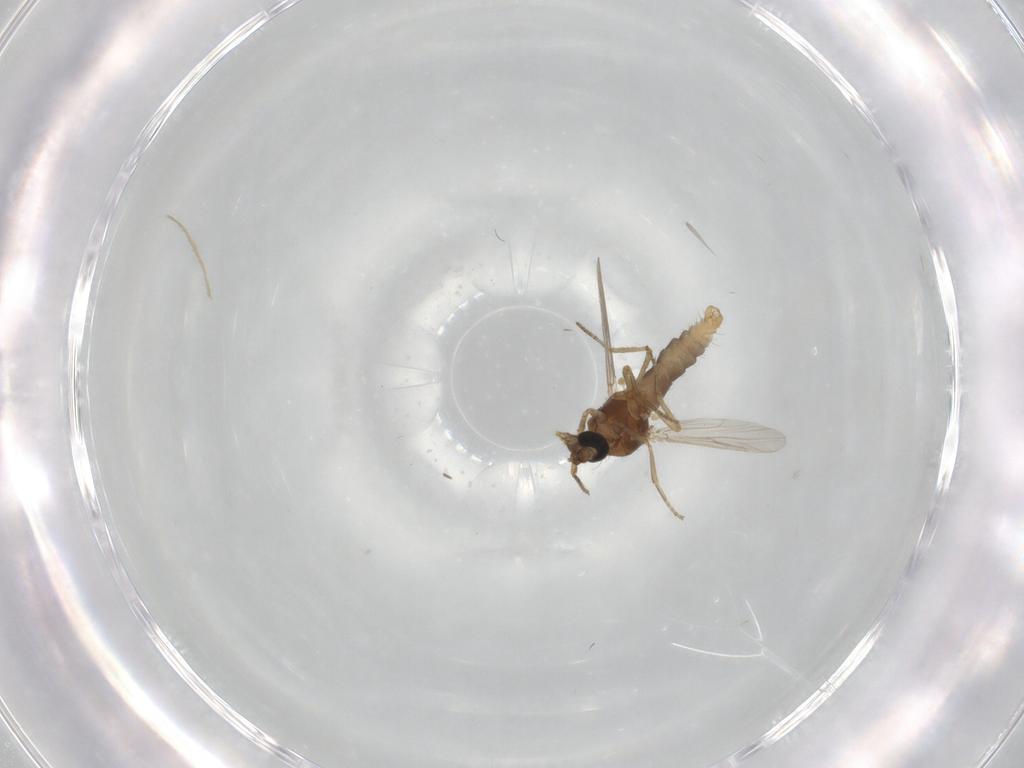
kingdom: Animalia
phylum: Arthropoda
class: Insecta
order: Diptera
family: Ceratopogonidae
